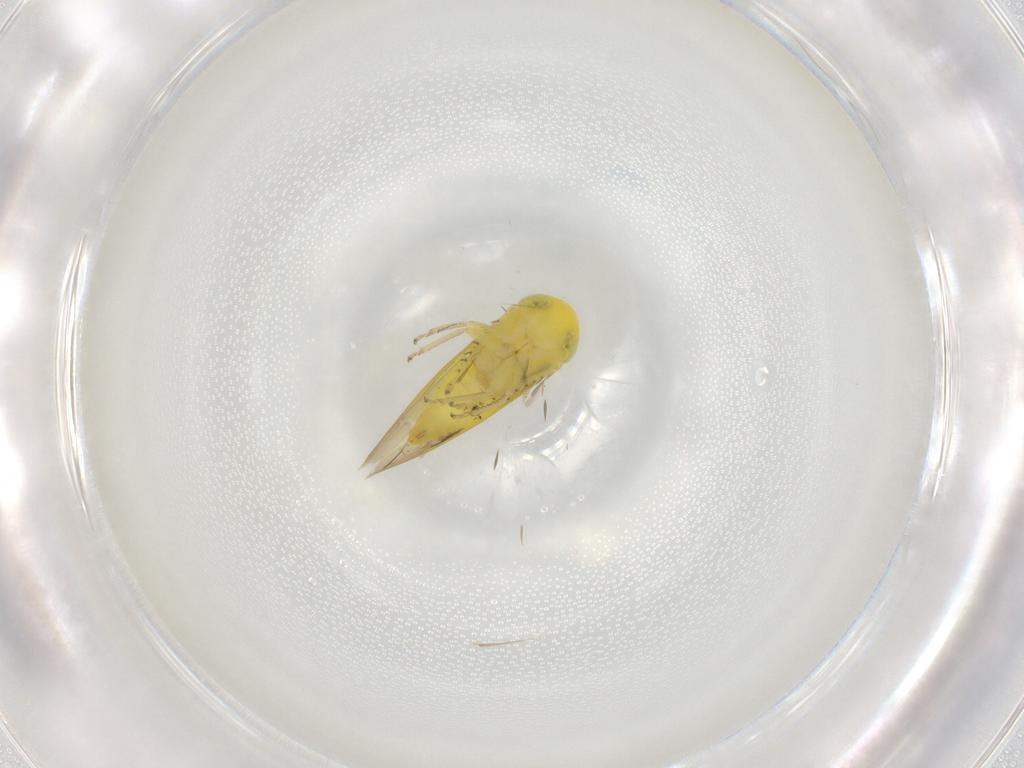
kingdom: Animalia
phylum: Arthropoda
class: Insecta
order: Hemiptera
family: Cicadellidae
